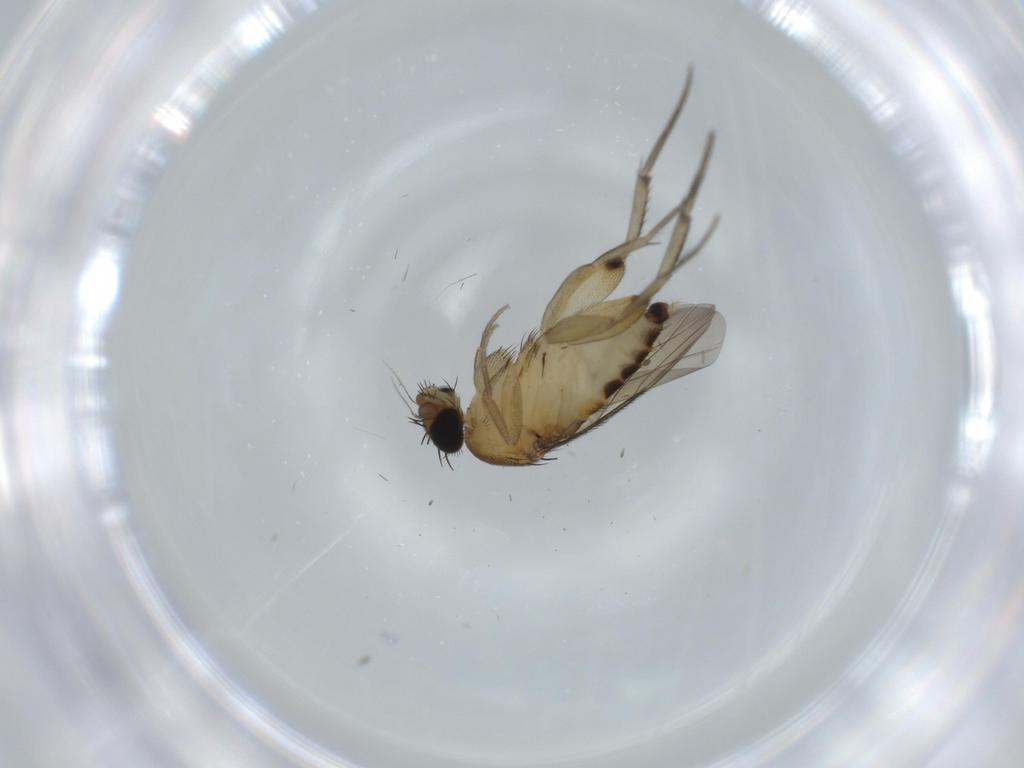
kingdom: Animalia
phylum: Arthropoda
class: Insecta
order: Diptera
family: Phoridae
